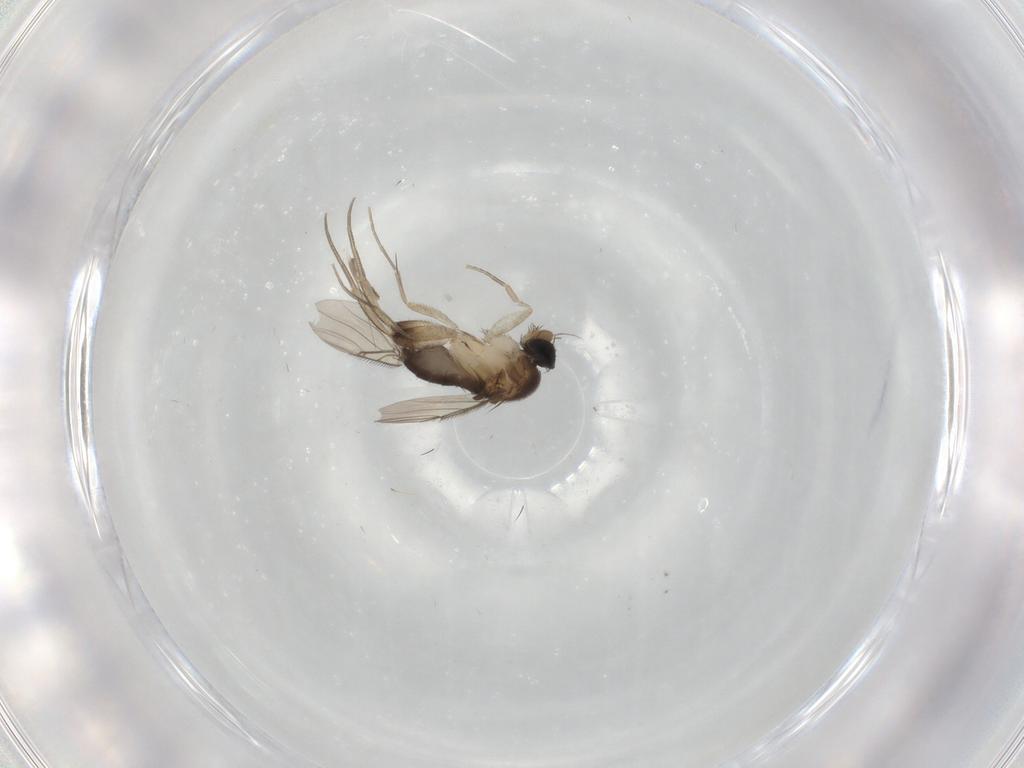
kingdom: Animalia
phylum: Arthropoda
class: Insecta
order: Diptera
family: Phoridae
